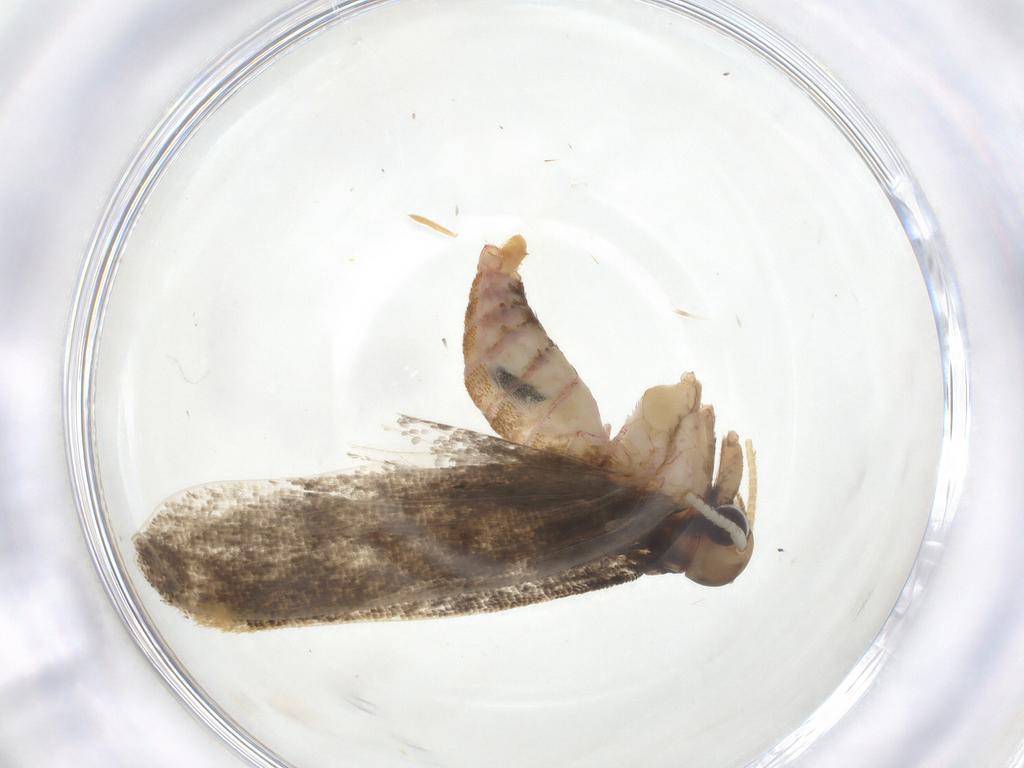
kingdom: Animalia
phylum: Arthropoda
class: Insecta
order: Lepidoptera
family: Tineidae
